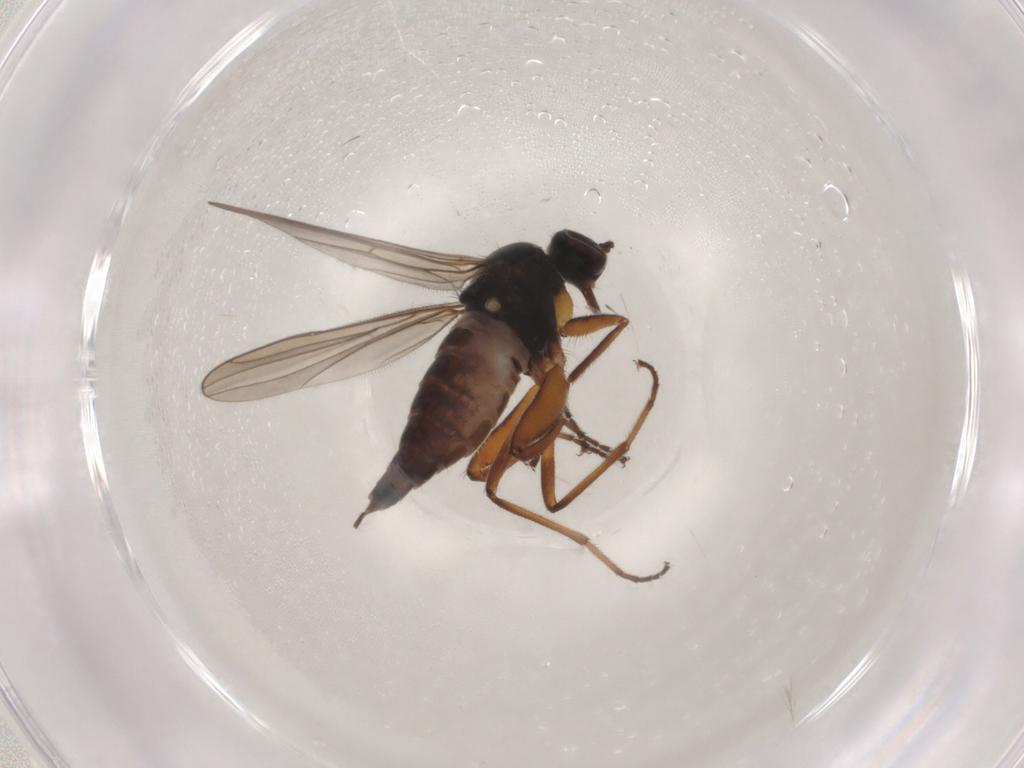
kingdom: Animalia
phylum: Arthropoda
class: Insecta
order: Diptera
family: Hybotidae
